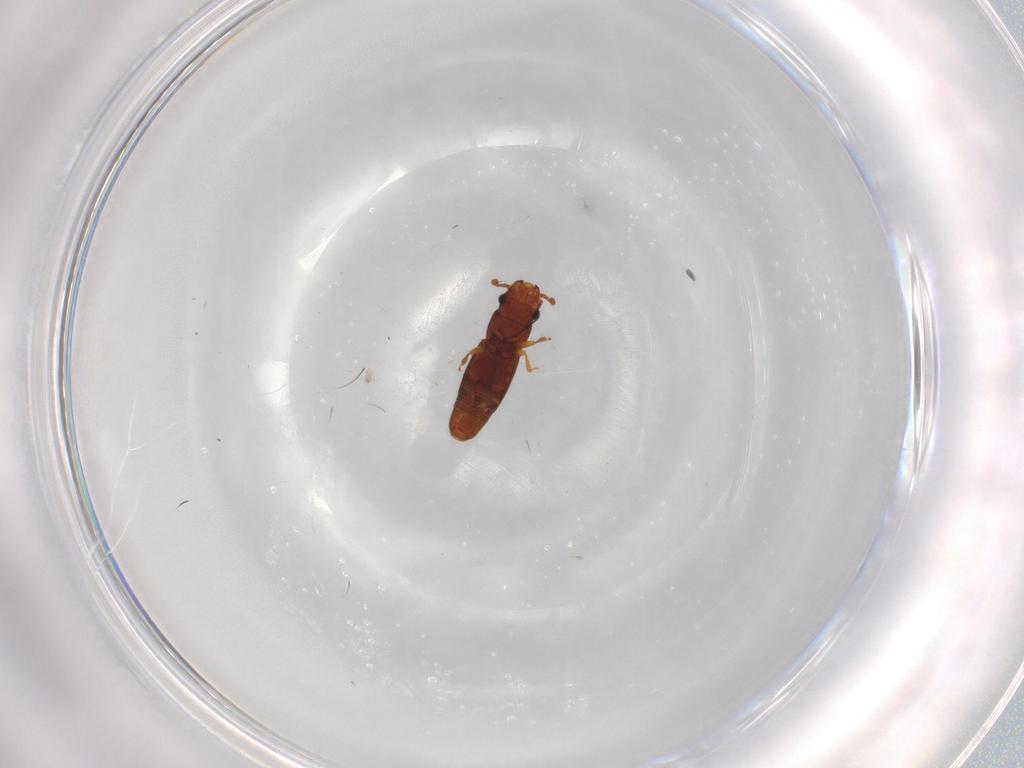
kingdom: Animalia
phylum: Arthropoda
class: Insecta
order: Coleoptera
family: Smicripidae
